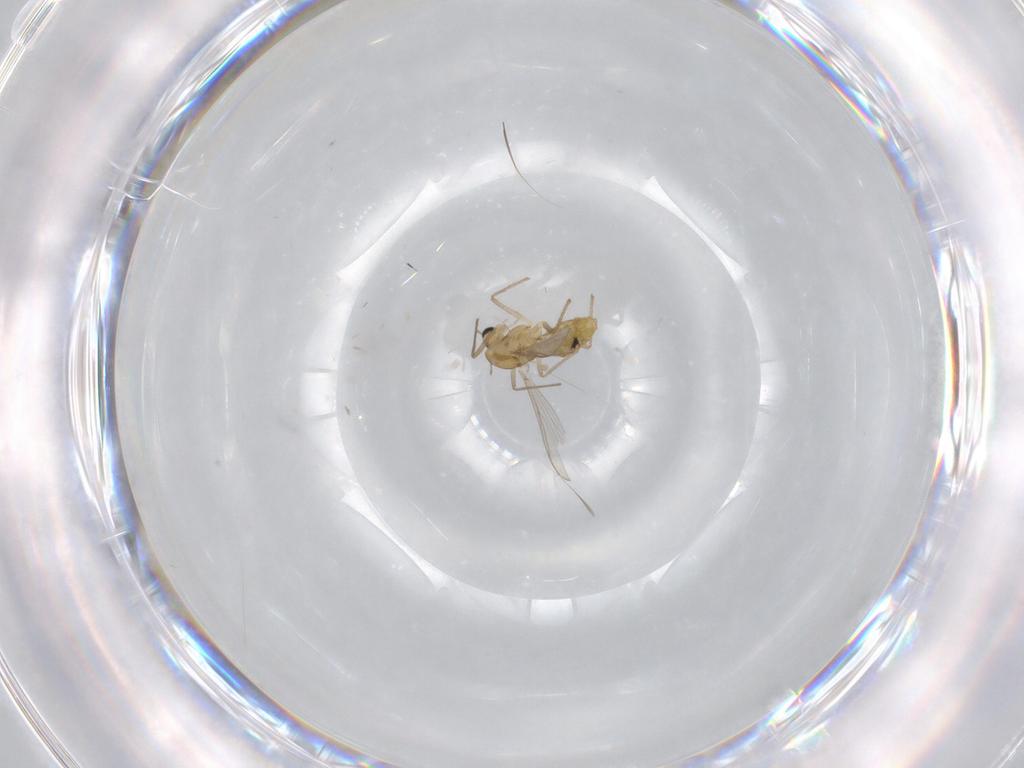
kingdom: Animalia
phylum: Arthropoda
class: Insecta
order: Diptera
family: Chironomidae
